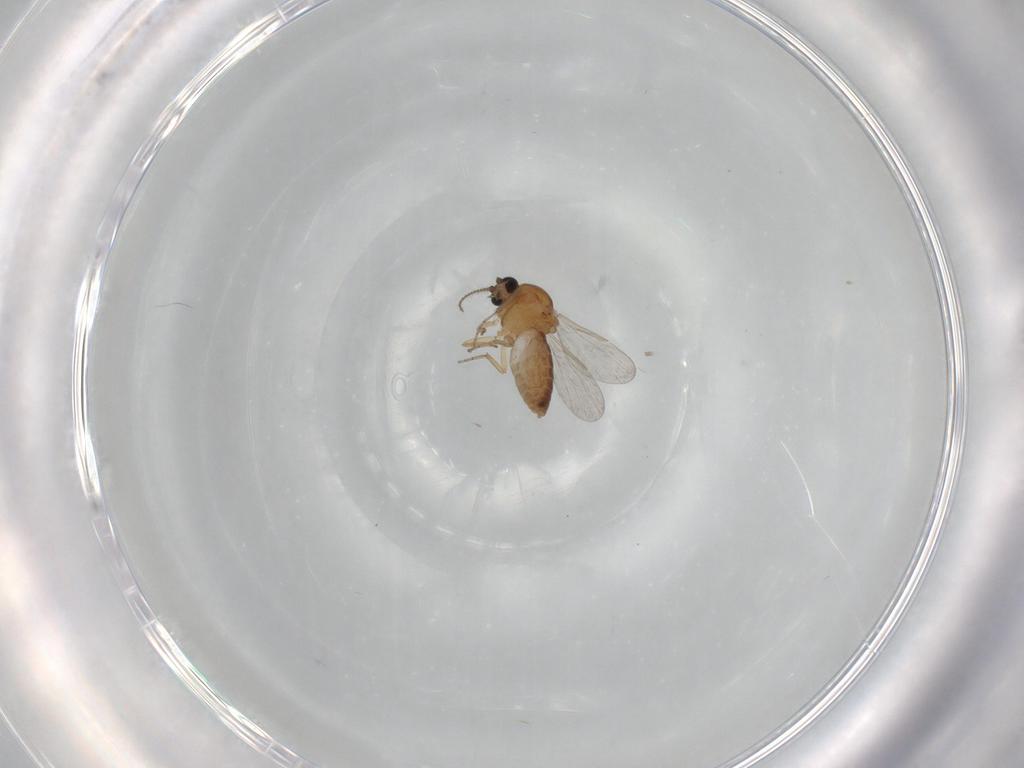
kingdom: Animalia
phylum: Arthropoda
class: Insecta
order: Diptera
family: Ceratopogonidae
